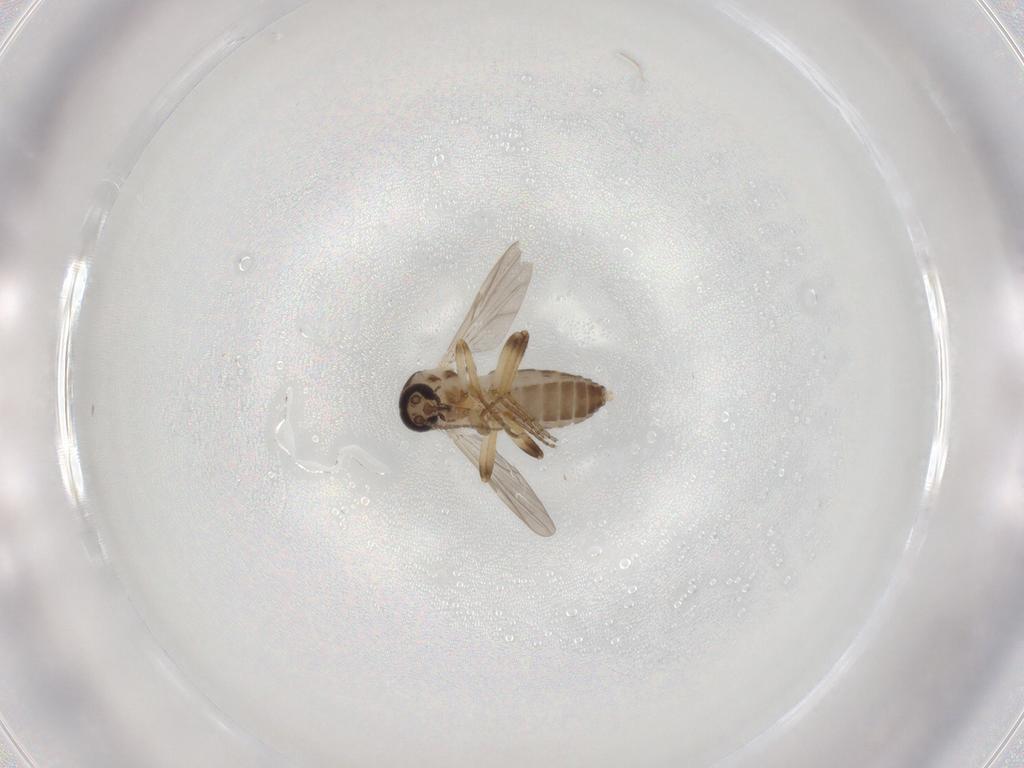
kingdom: Animalia
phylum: Arthropoda
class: Insecta
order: Diptera
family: Ceratopogonidae
